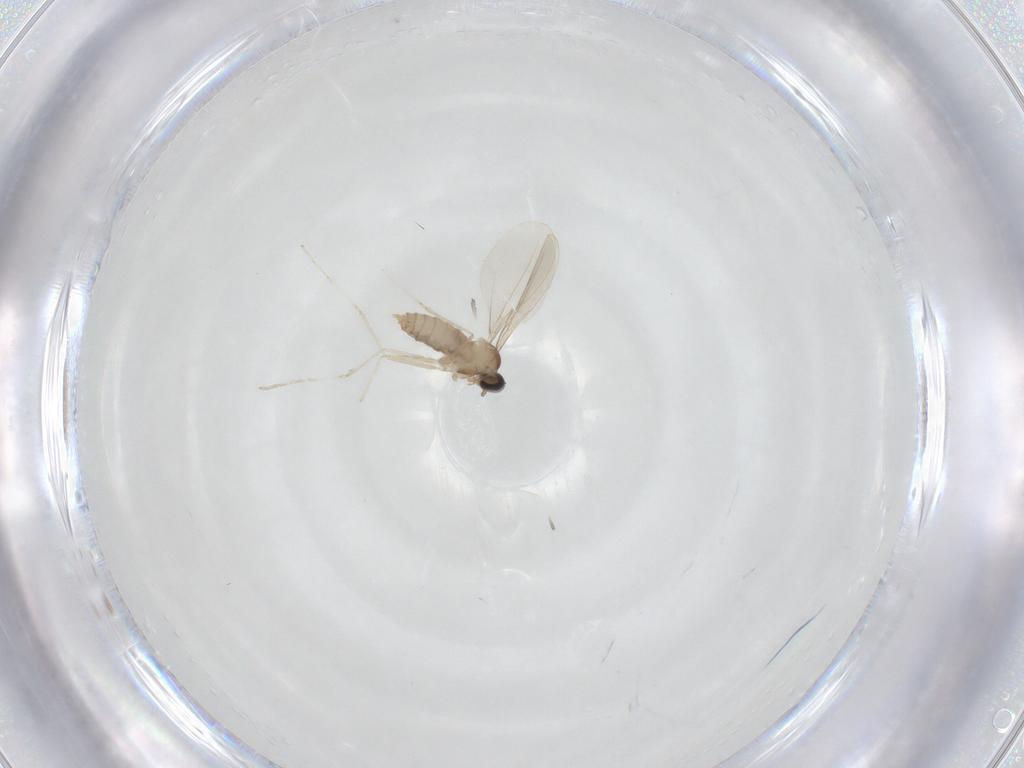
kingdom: Animalia
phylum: Arthropoda
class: Insecta
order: Diptera
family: Cecidomyiidae
